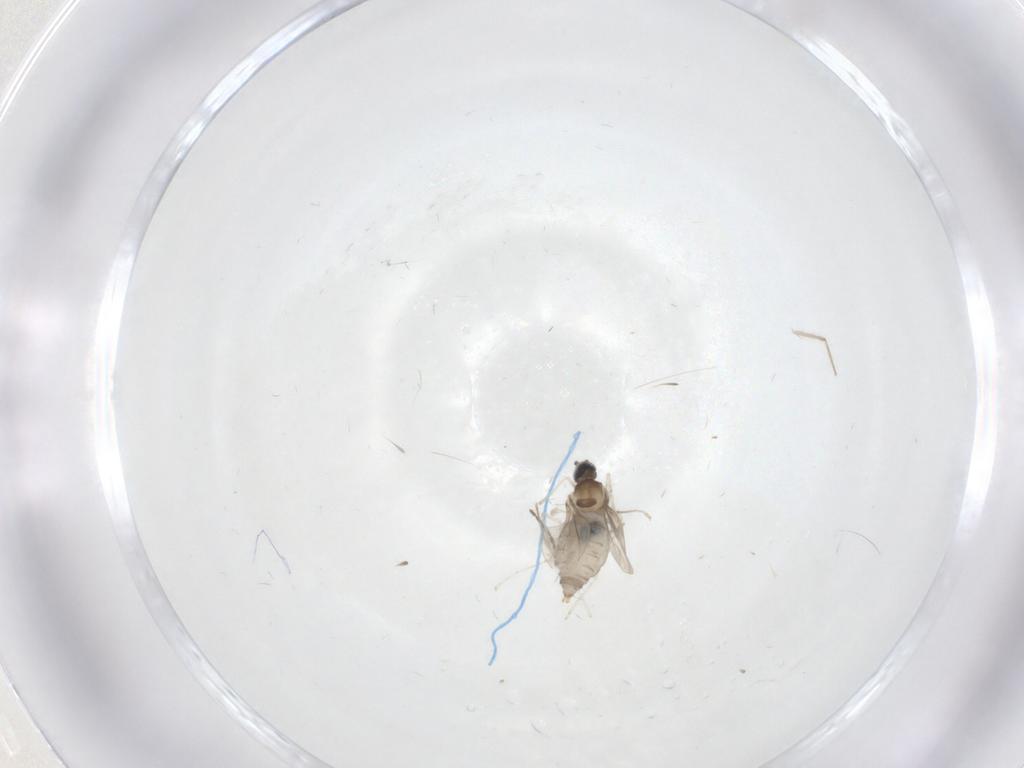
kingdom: Animalia
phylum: Arthropoda
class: Insecta
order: Diptera
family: Cecidomyiidae
